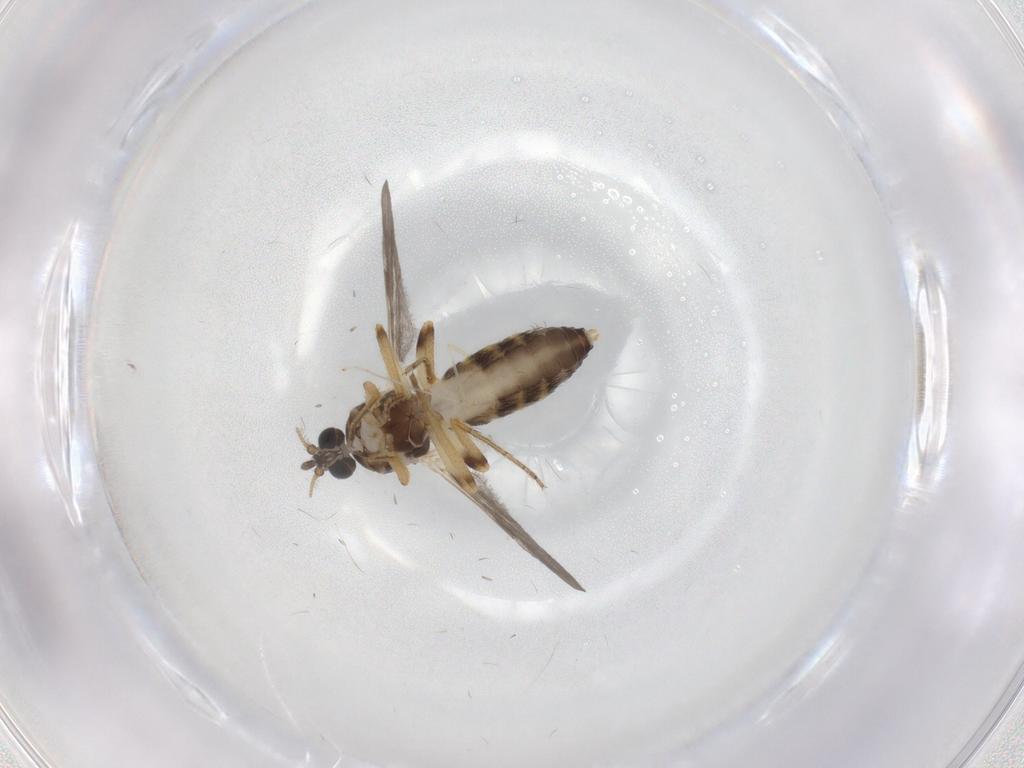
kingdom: Animalia
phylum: Arthropoda
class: Insecta
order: Diptera
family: Ceratopogonidae
